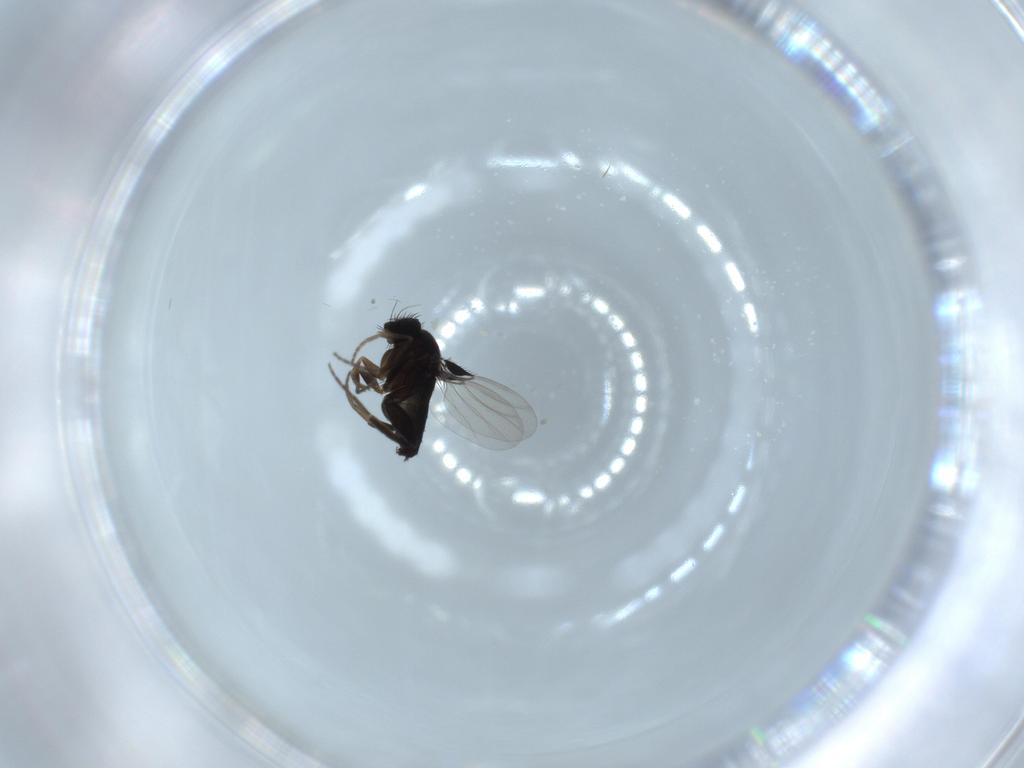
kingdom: Animalia
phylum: Arthropoda
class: Insecta
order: Diptera
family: Phoridae
